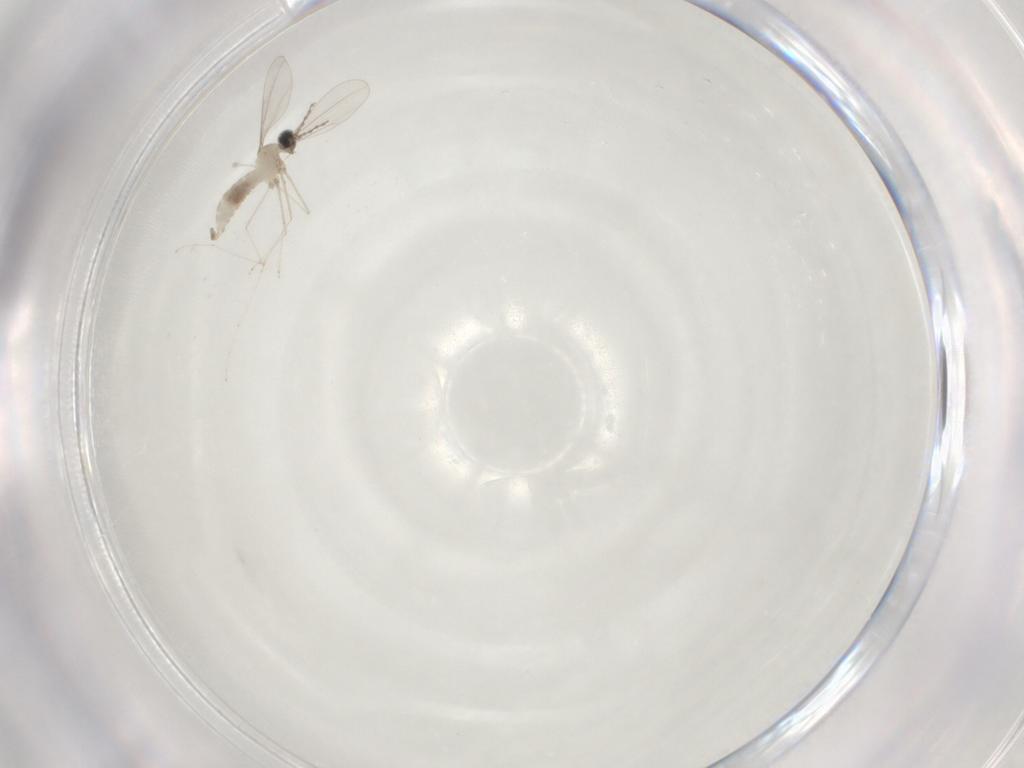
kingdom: Animalia
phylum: Arthropoda
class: Insecta
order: Diptera
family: Cecidomyiidae
